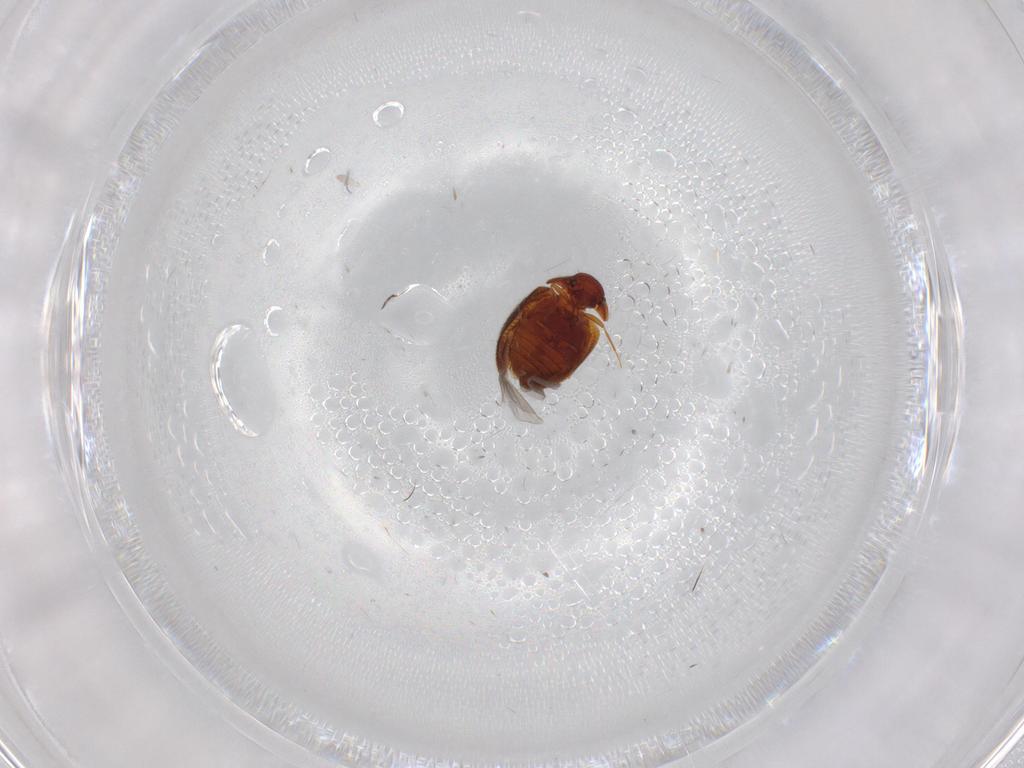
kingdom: Animalia
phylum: Arthropoda
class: Insecta
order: Coleoptera
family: Clambidae
